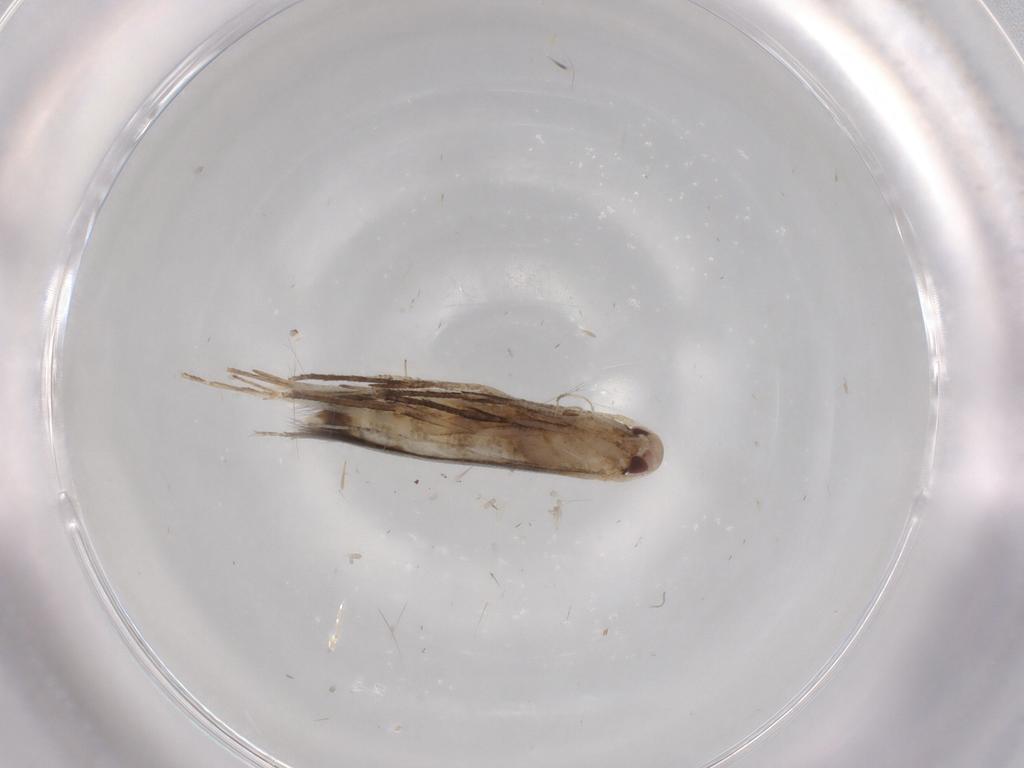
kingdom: Animalia
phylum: Arthropoda
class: Insecta
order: Lepidoptera
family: Cosmopterigidae
